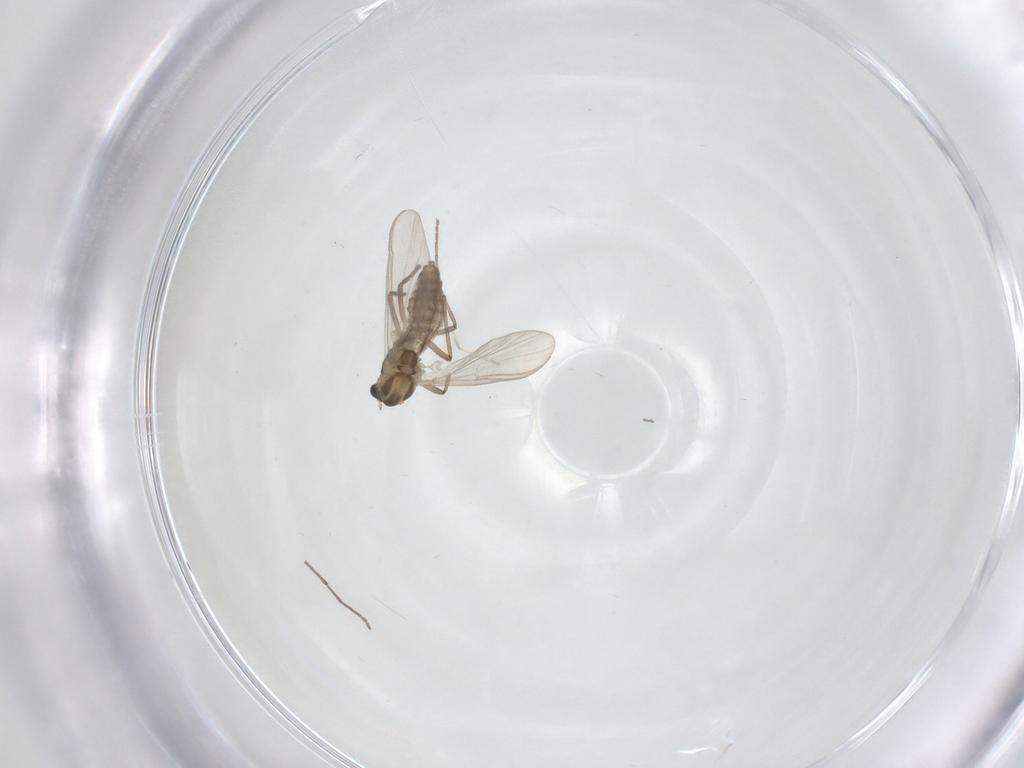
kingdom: Animalia
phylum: Arthropoda
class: Insecta
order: Diptera
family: Chironomidae
